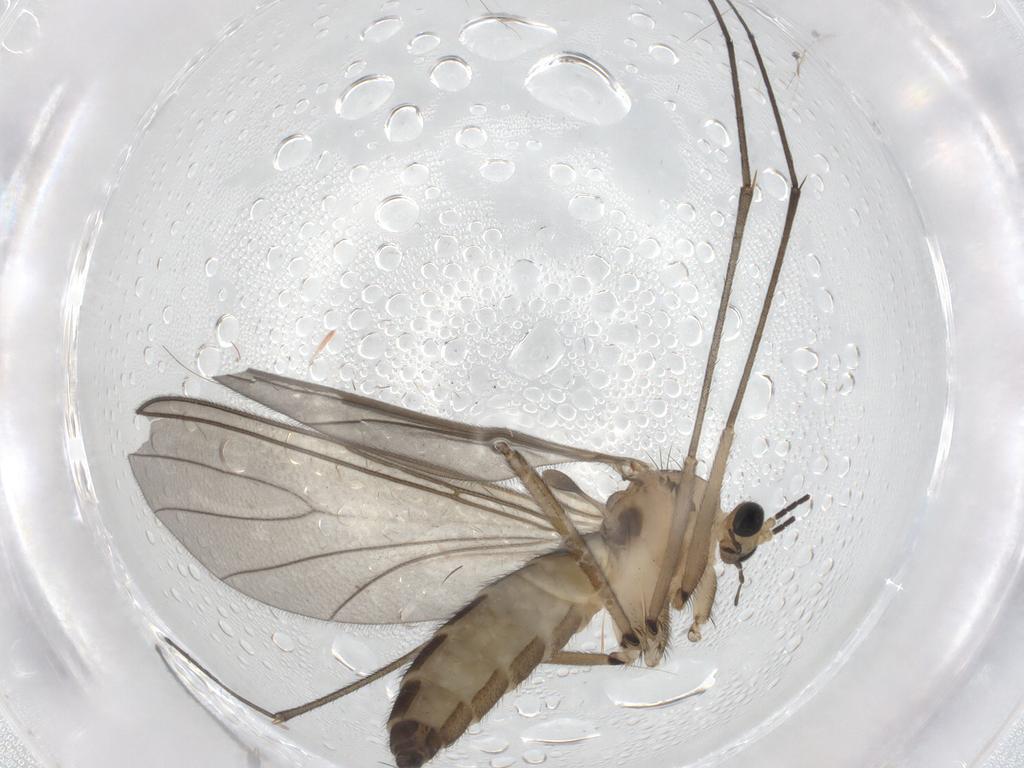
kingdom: Animalia
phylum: Arthropoda
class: Insecta
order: Diptera
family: Sciaridae
